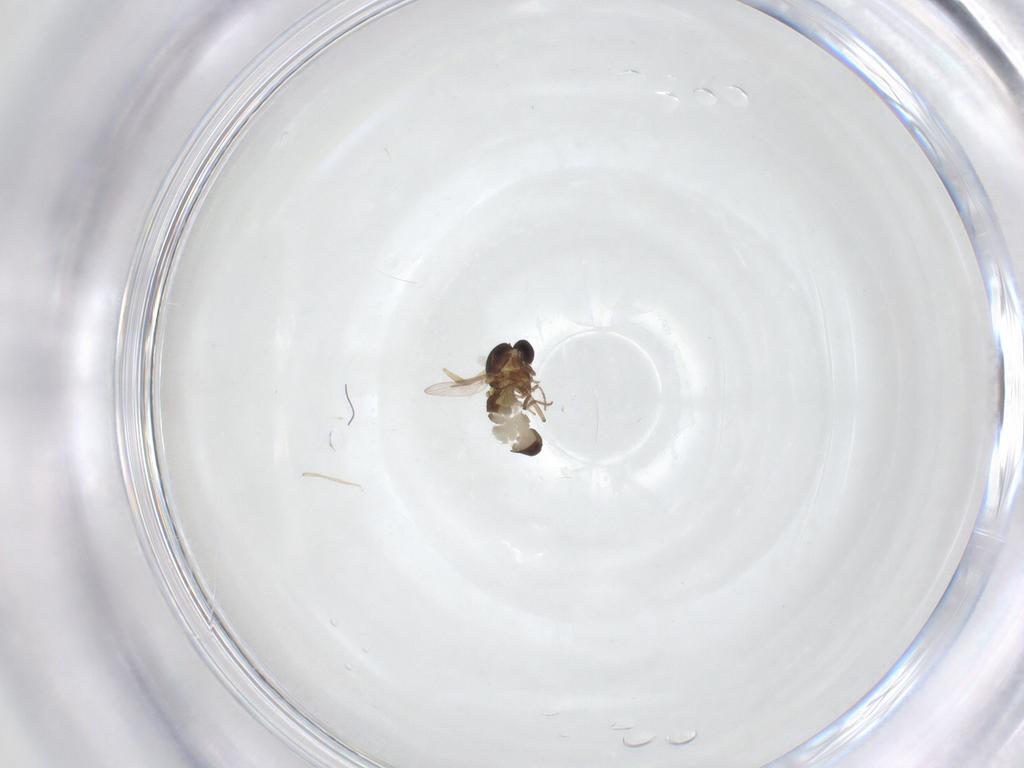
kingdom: Animalia
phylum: Arthropoda
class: Insecta
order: Diptera
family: Ceratopogonidae
